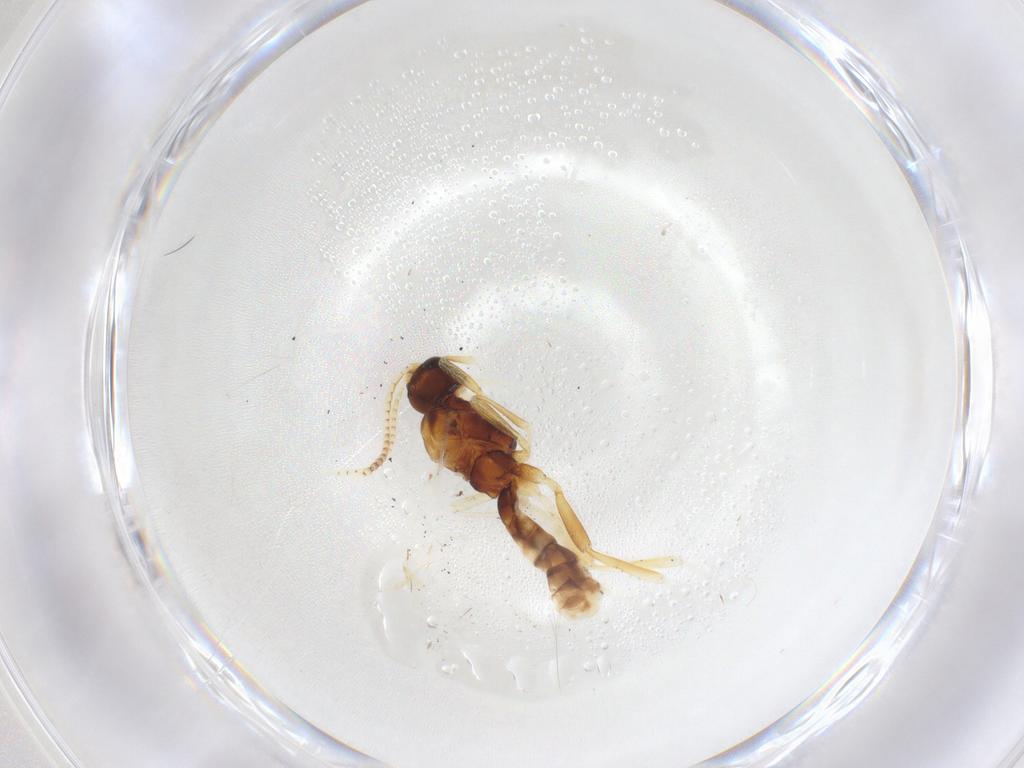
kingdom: Animalia
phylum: Arthropoda
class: Insecta
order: Hymenoptera
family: Braconidae
